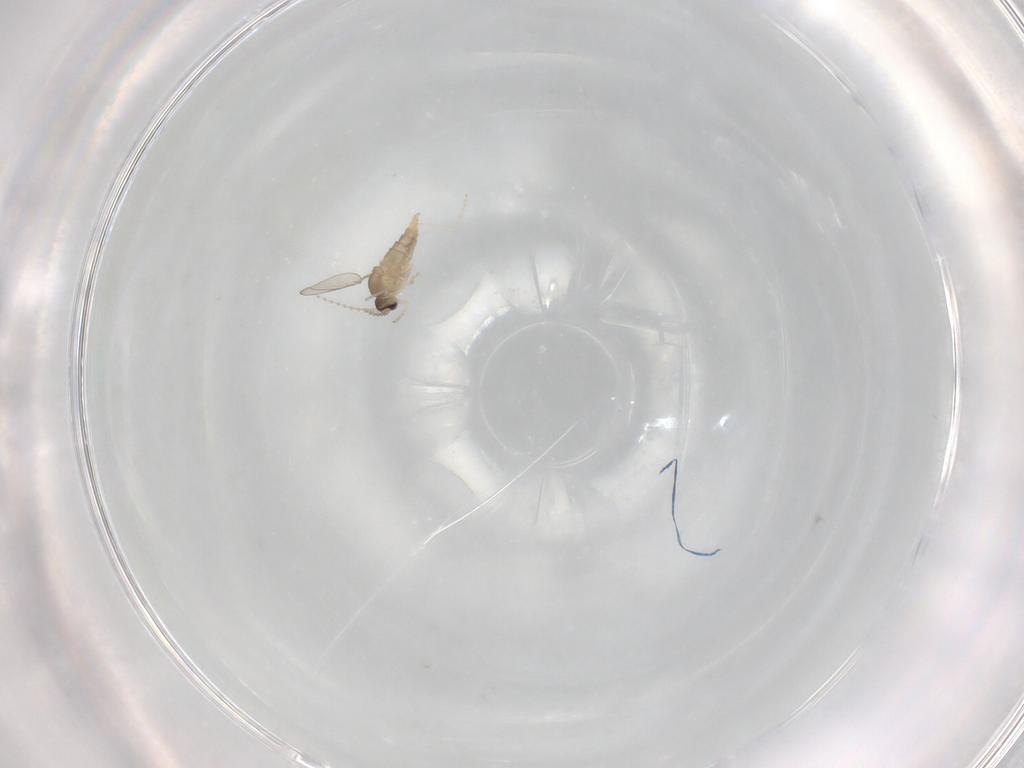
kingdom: Animalia
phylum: Arthropoda
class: Insecta
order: Diptera
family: Cecidomyiidae
